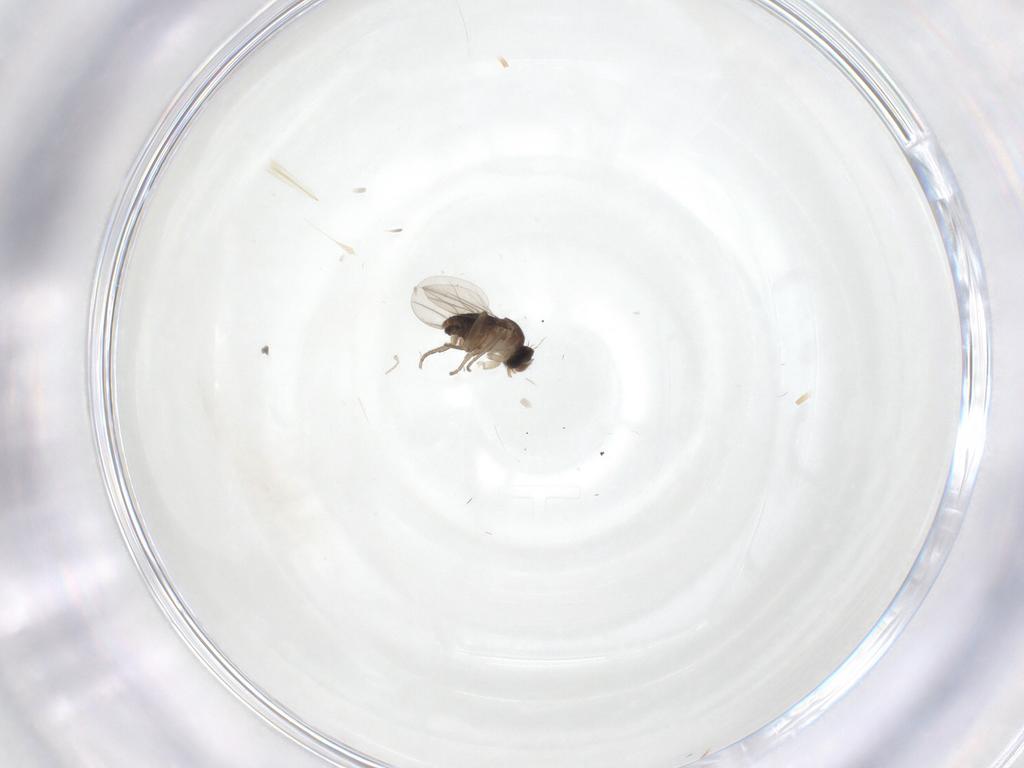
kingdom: Animalia
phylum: Arthropoda
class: Insecta
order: Diptera
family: Phoridae
